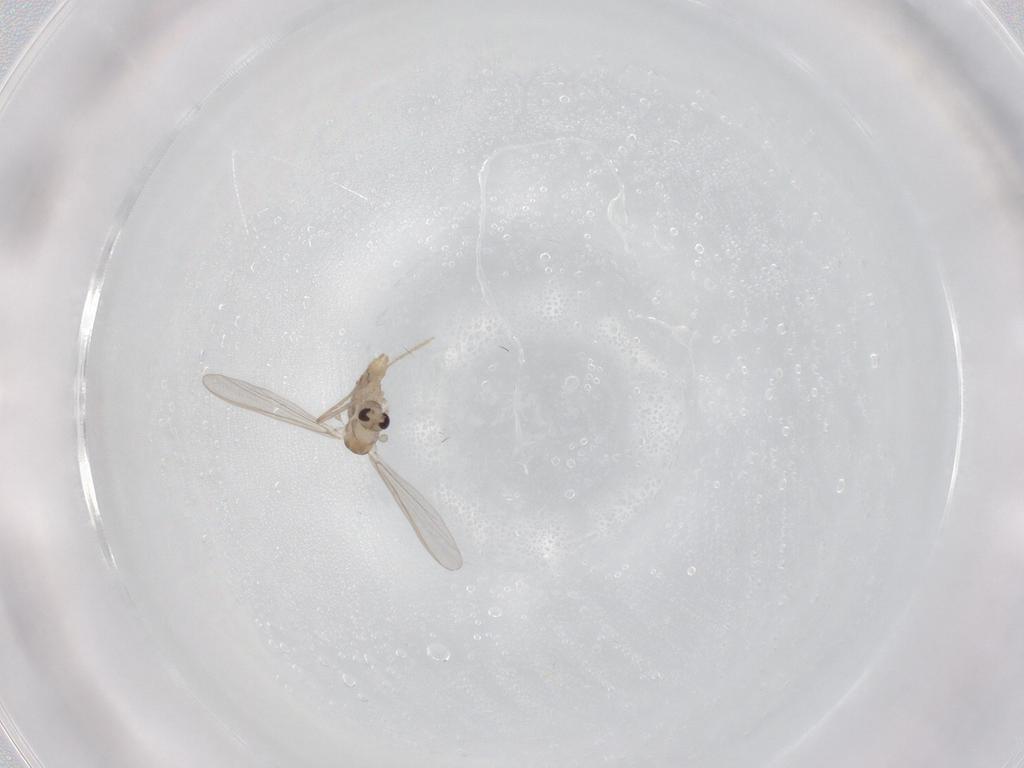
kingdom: Animalia
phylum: Arthropoda
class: Insecta
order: Diptera
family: Chironomidae
